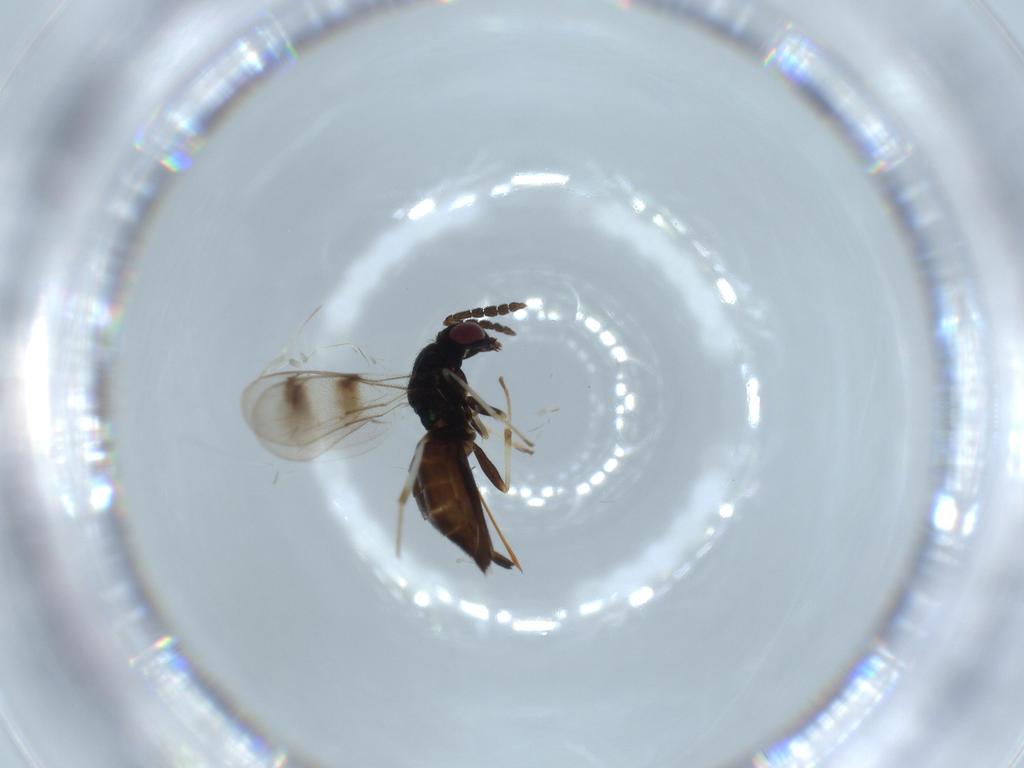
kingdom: Animalia
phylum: Arthropoda
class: Insecta
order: Hymenoptera
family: Eulophidae
